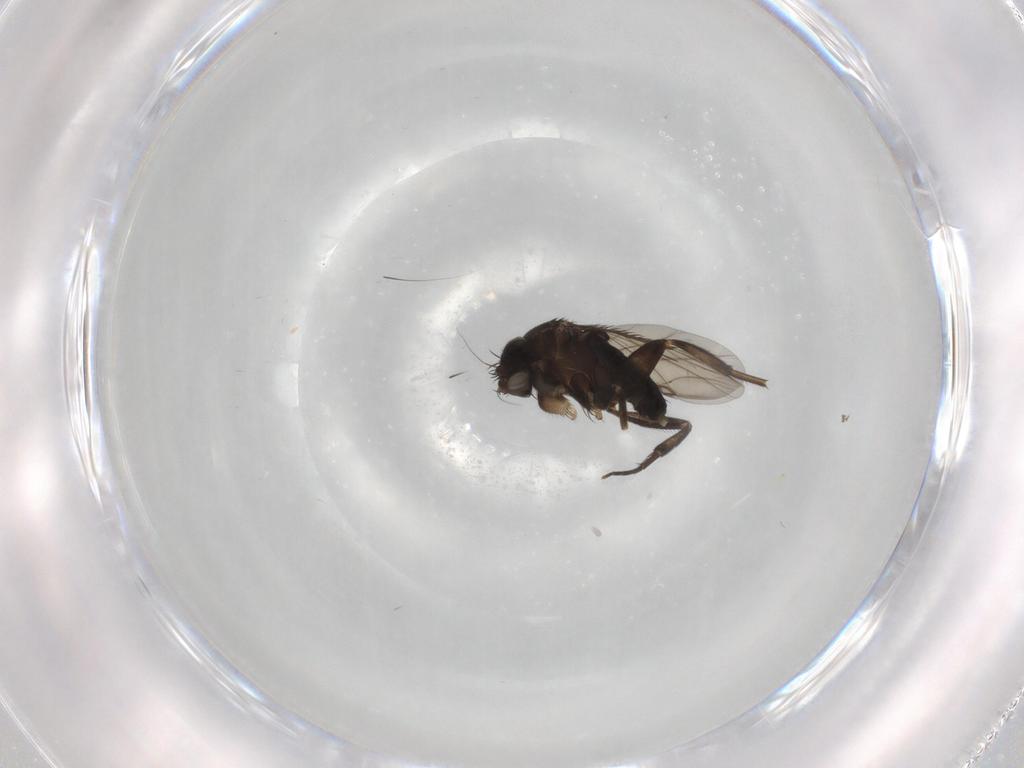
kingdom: Animalia
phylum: Arthropoda
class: Insecta
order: Diptera
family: Phoridae
